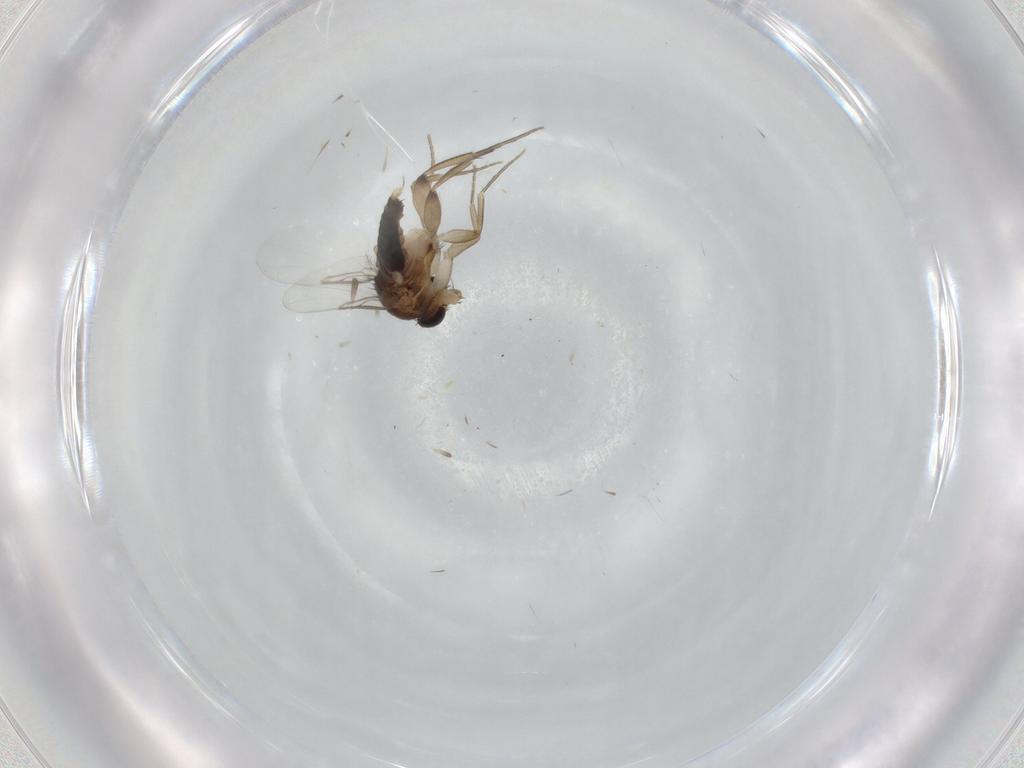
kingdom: Animalia
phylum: Arthropoda
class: Insecta
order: Diptera
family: Phoridae
